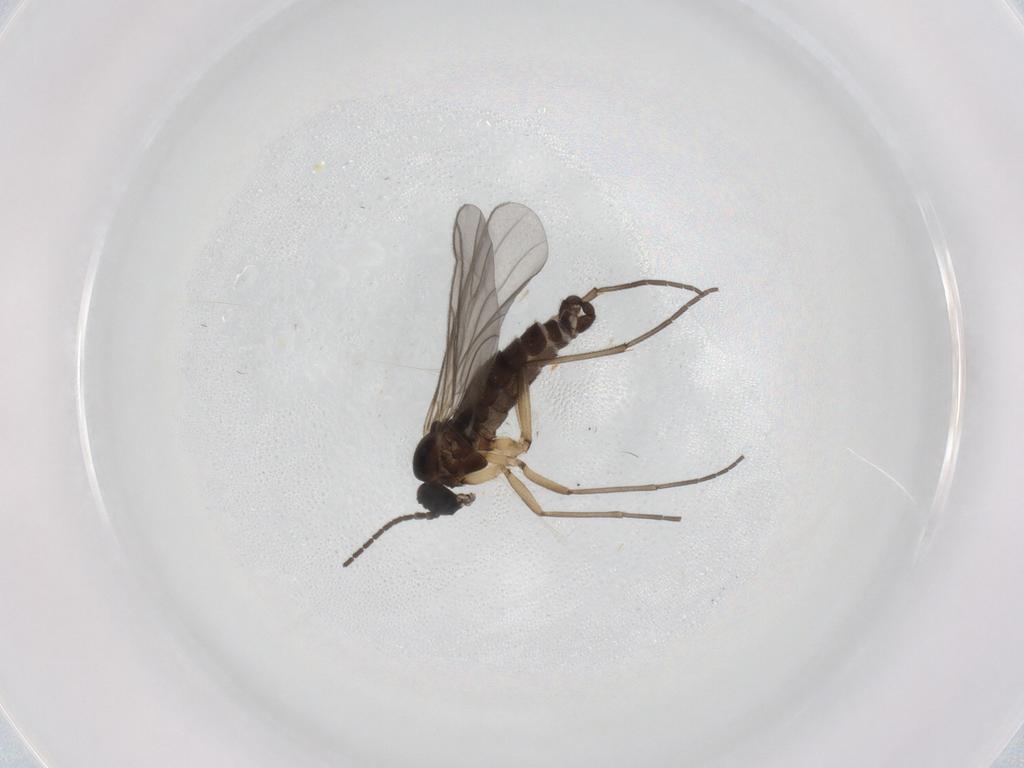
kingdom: Animalia
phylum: Arthropoda
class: Insecta
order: Diptera
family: Sciaridae
